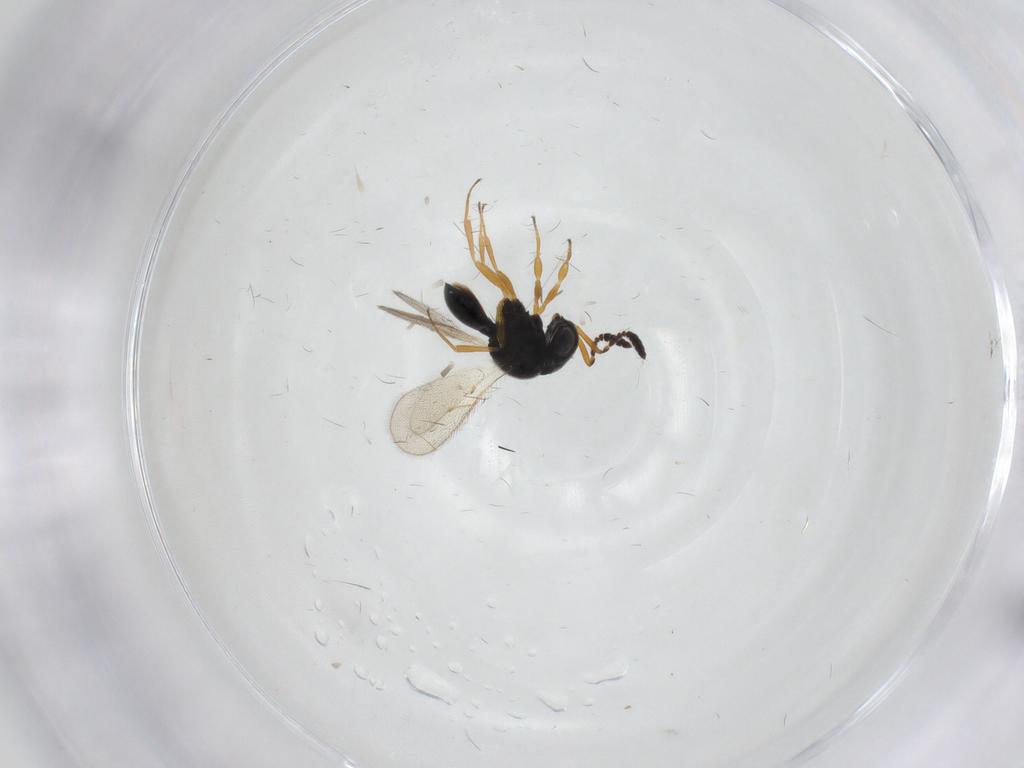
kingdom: Animalia
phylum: Arthropoda
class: Insecta
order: Hymenoptera
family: Scelionidae
